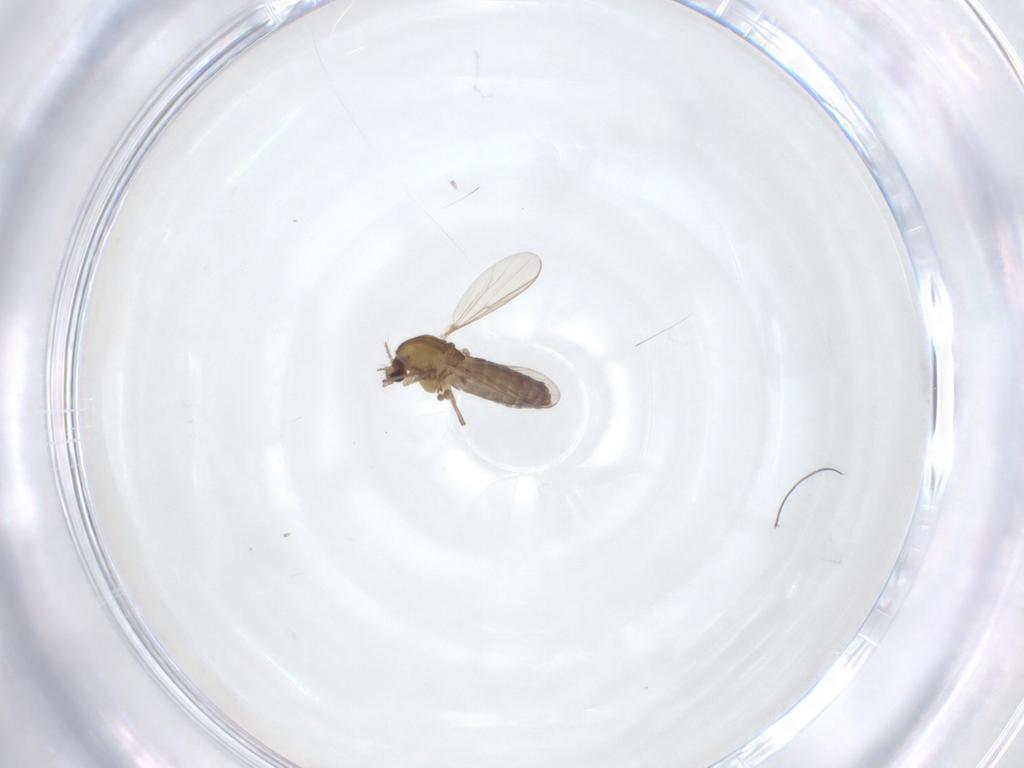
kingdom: Animalia
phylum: Arthropoda
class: Insecta
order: Diptera
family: Chironomidae
